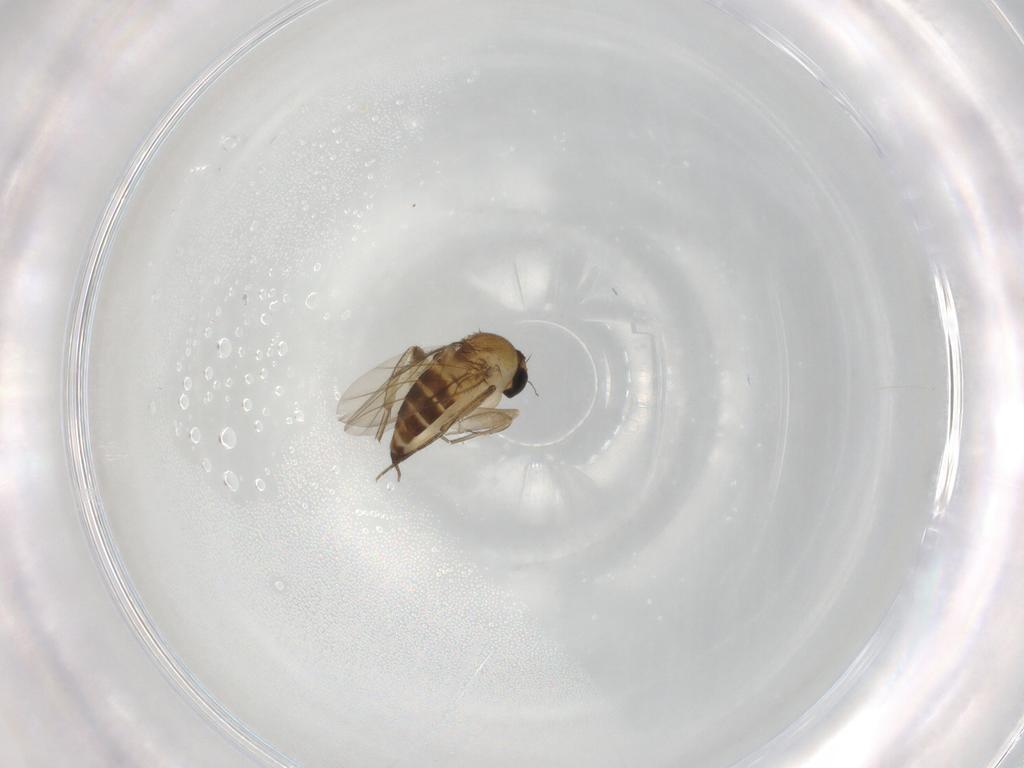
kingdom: Animalia
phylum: Arthropoda
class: Insecta
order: Diptera
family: Phoridae
